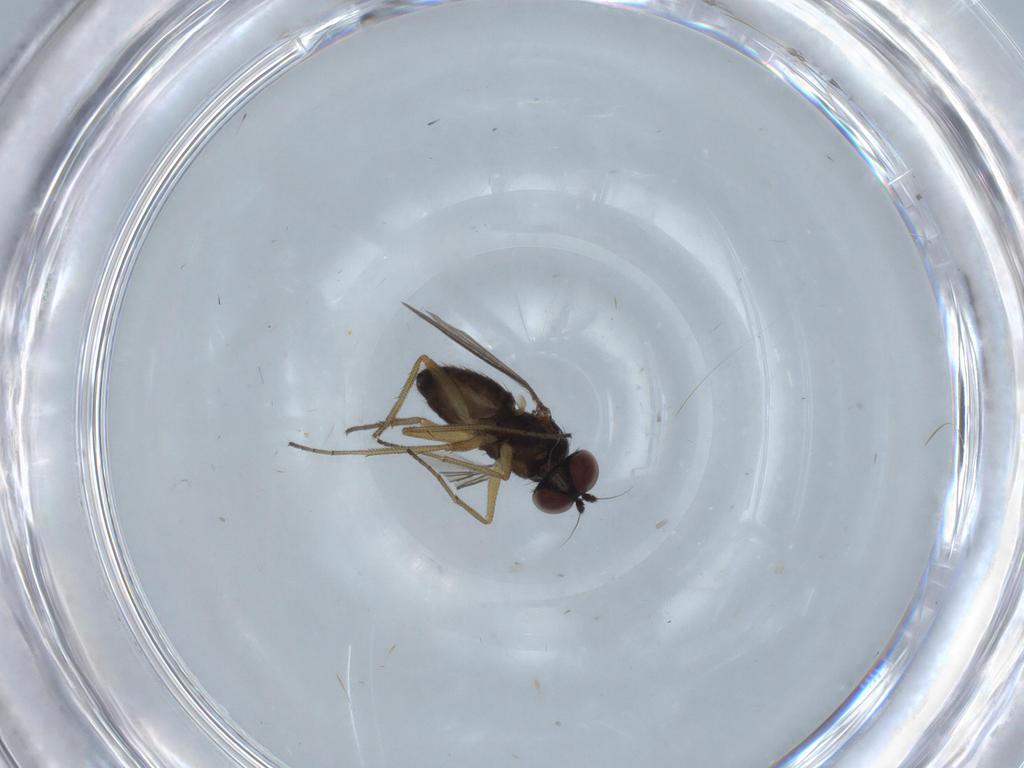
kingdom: Animalia
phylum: Arthropoda
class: Insecta
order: Diptera
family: Dolichopodidae
